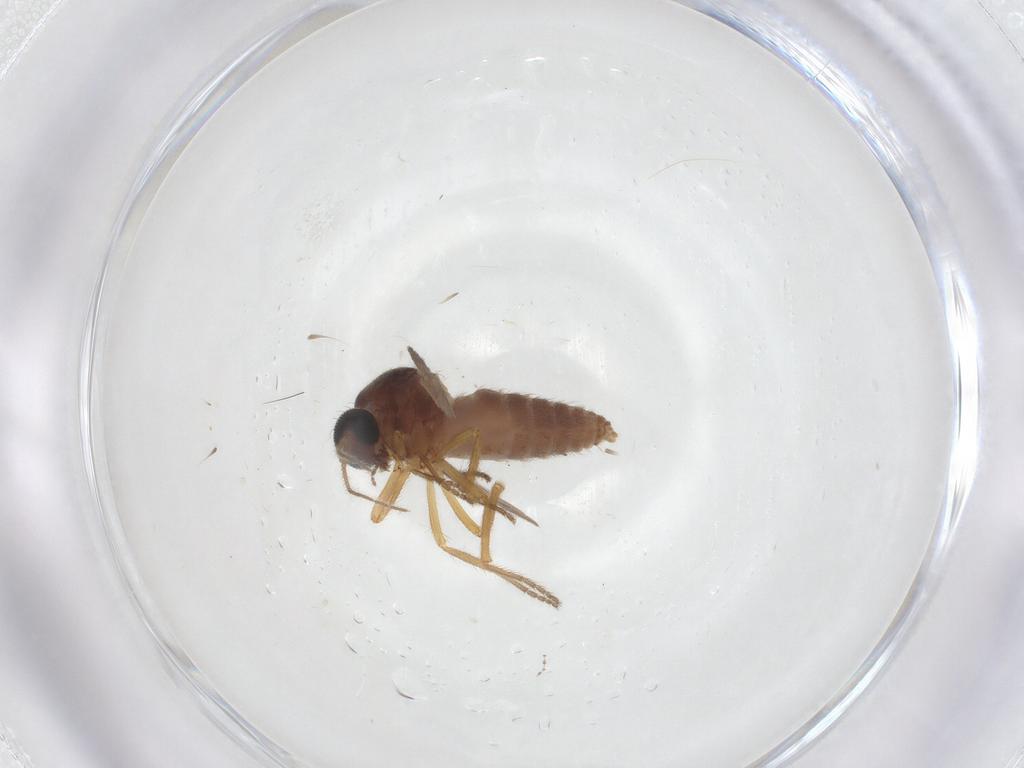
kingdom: Animalia
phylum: Arthropoda
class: Insecta
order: Diptera
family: Ceratopogonidae
